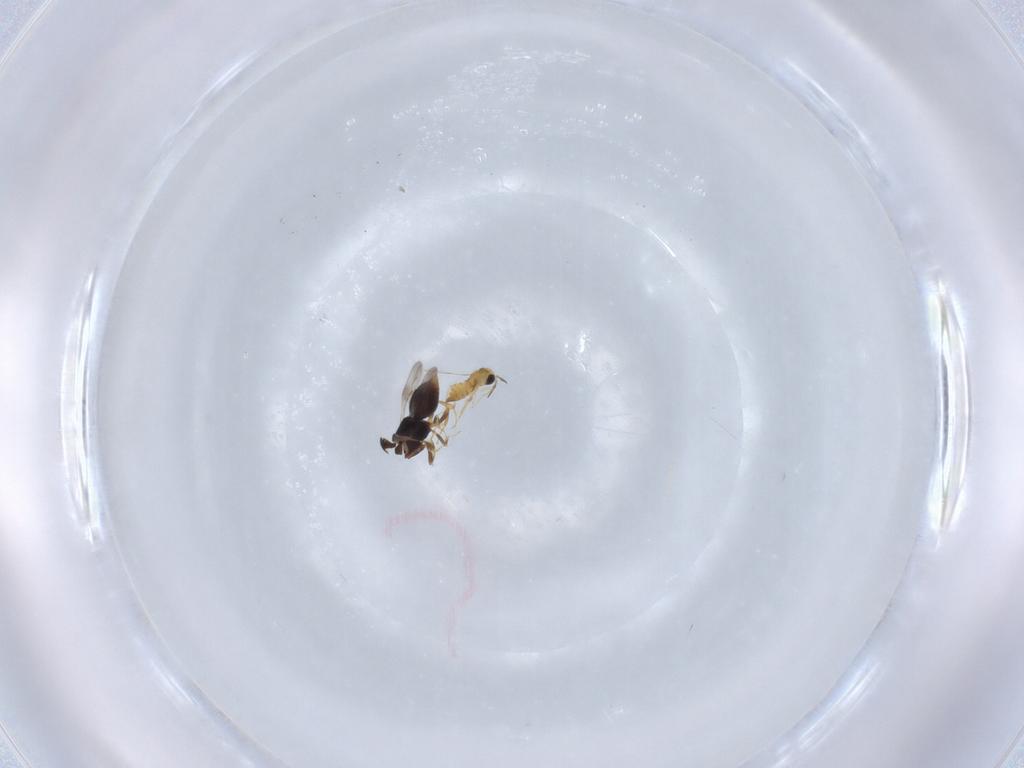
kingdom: Animalia
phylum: Arthropoda
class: Insecta
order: Hymenoptera
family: Trichogrammatidae
